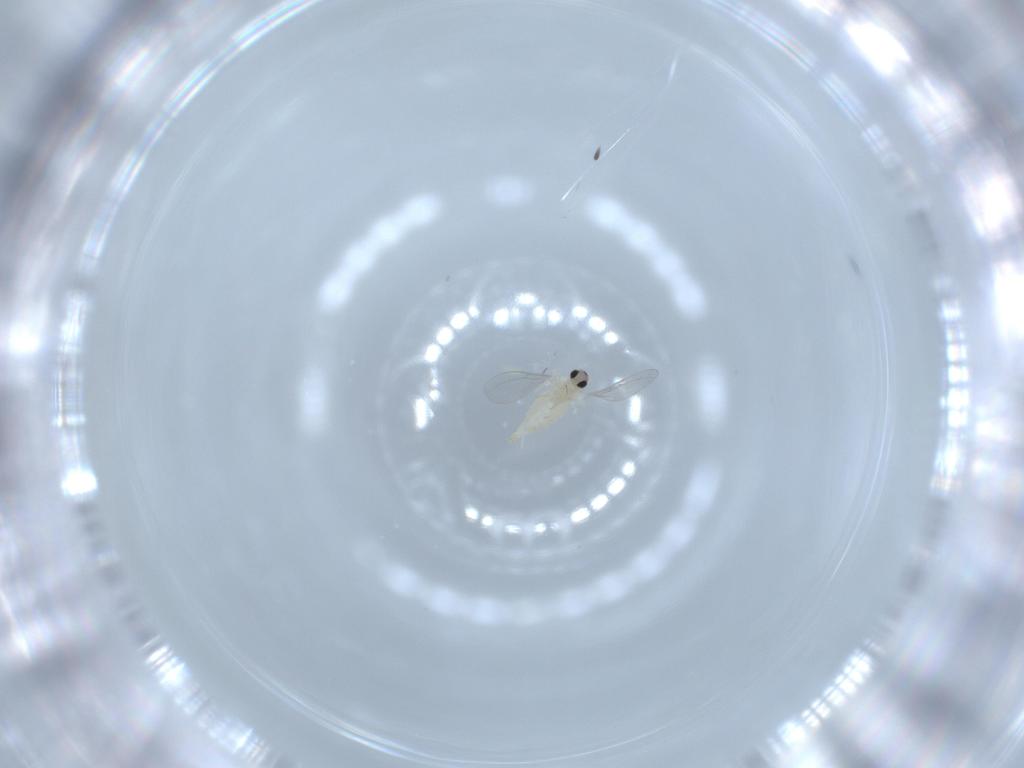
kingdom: Animalia
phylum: Arthropoda
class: Insecta
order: Diptera
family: Cecidomyiidae
